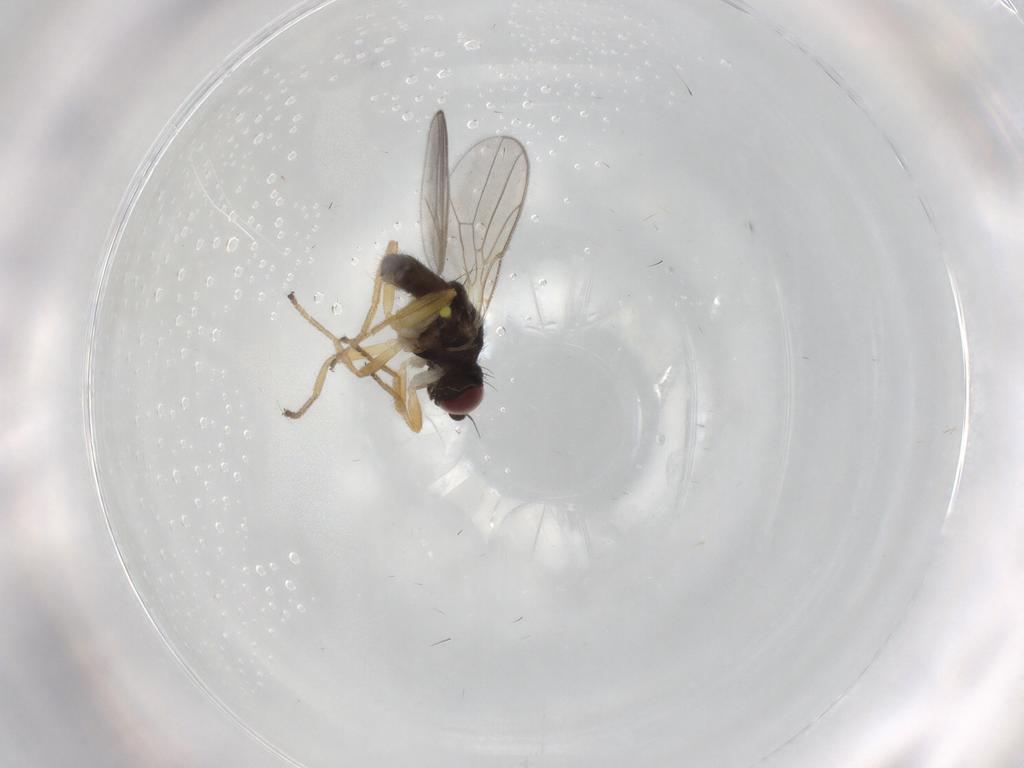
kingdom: Animalia
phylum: Arthropoda
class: Insecta
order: Diptera
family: Chloropidae
